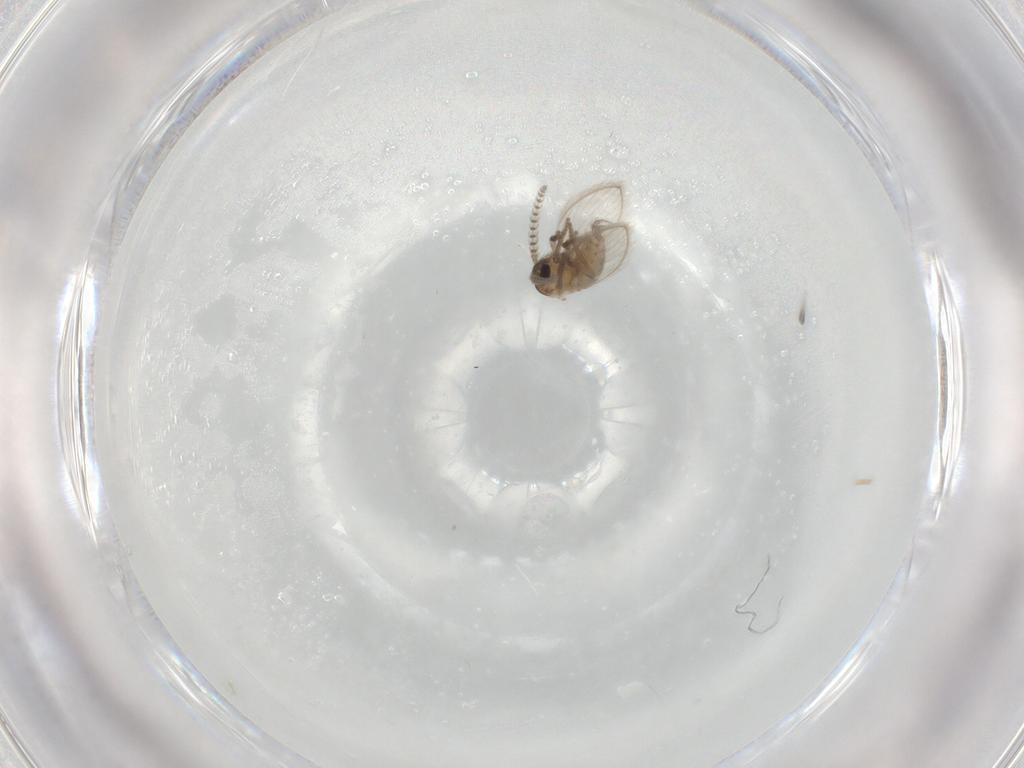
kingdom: Animalia
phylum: Arthropoda
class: Insecta
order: Diptera
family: Psychodidae
